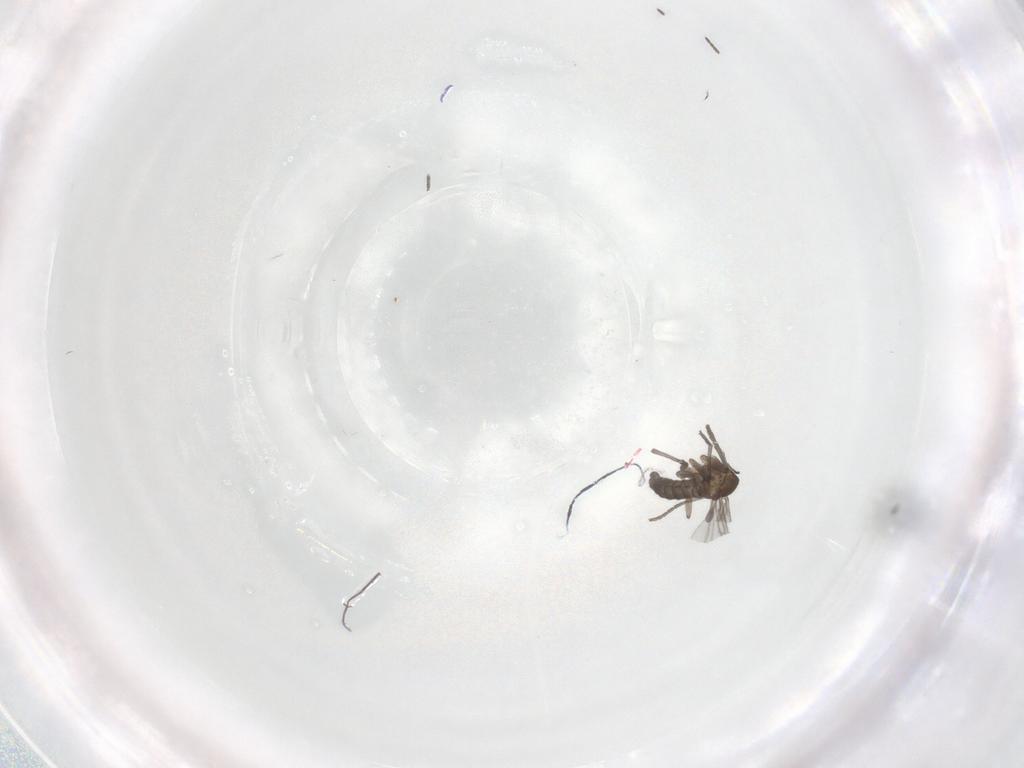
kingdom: Animalia
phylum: Arthropoda
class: Insecta
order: Diptera
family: Sciaridae
